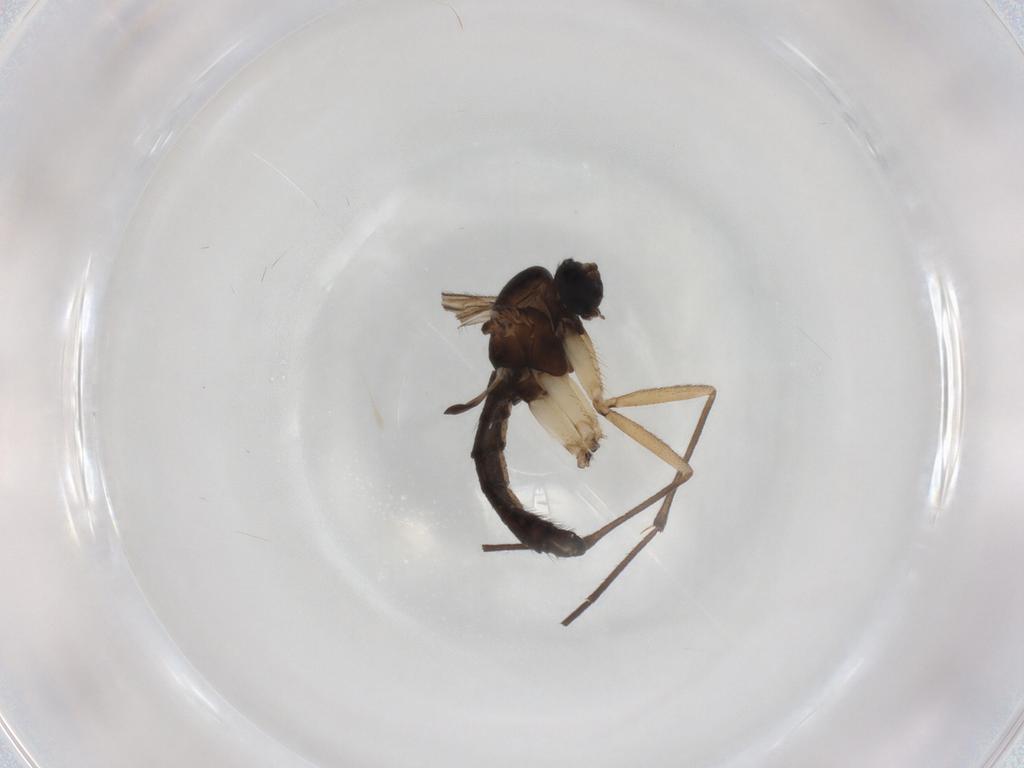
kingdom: Animalia
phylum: Arthropoda
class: Insecta
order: Diptera
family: Sciaridae
